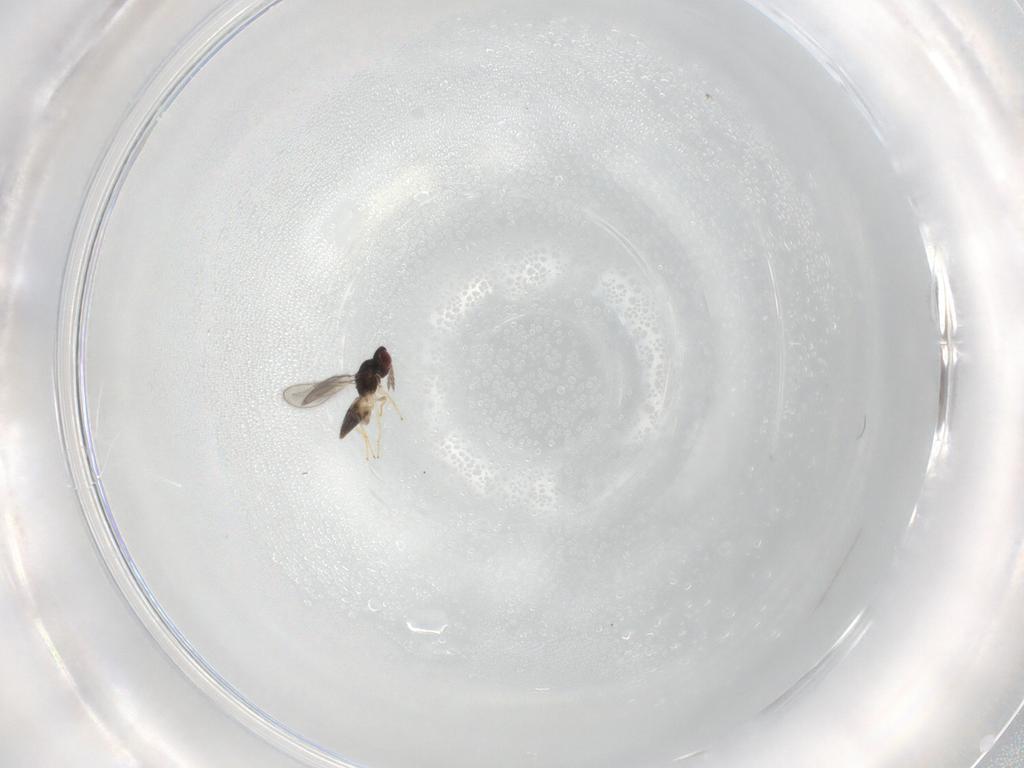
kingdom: Animalia
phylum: Arthropoda
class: Insecta
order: Hymenoptera
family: Eulophidae
